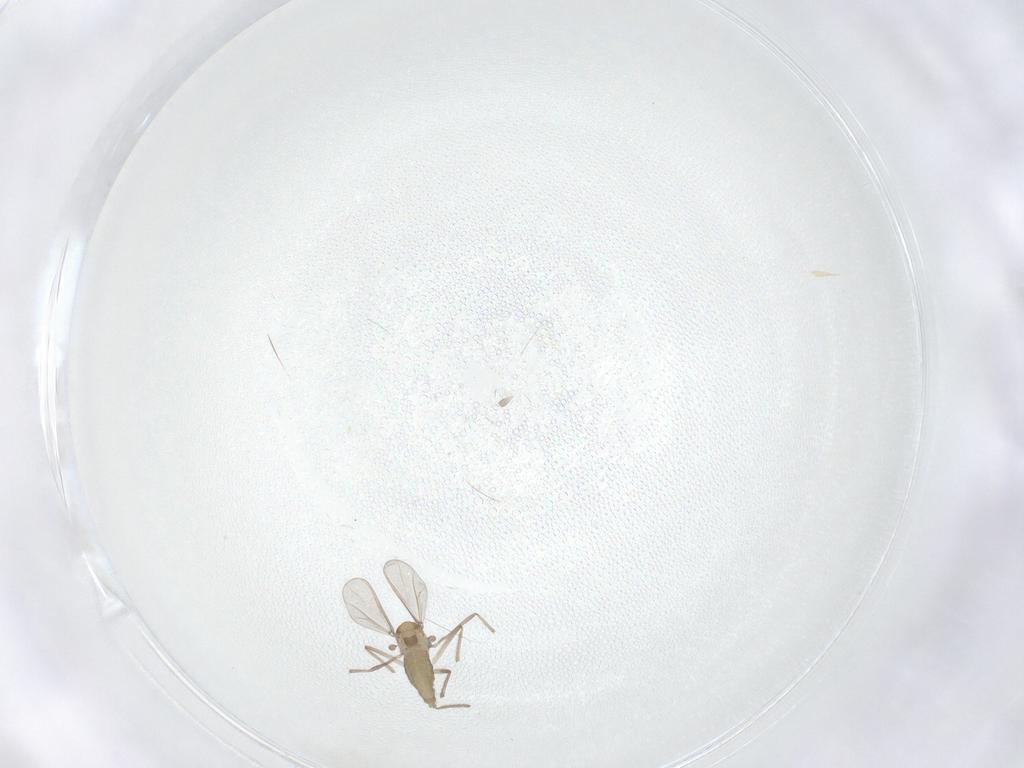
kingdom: Animalia
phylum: Arthropoda
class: Insecta
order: Diptera
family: Chironomidae
